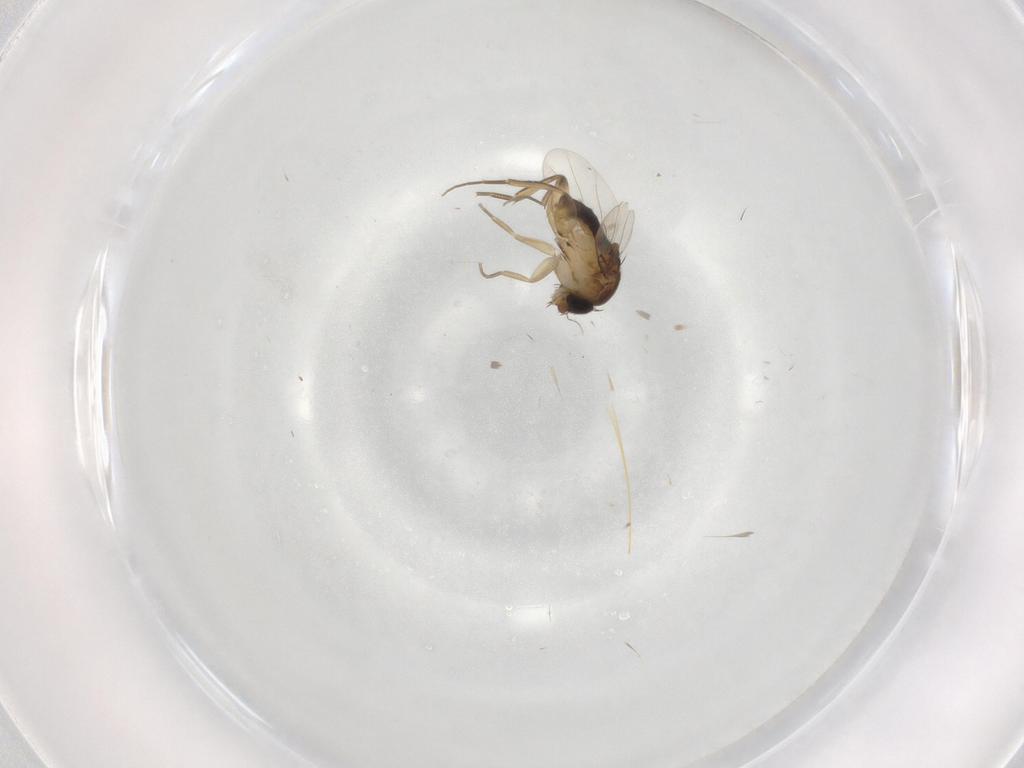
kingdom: Animalia
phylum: Arthropoda
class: Insecta
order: Diptera
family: Phoridae
